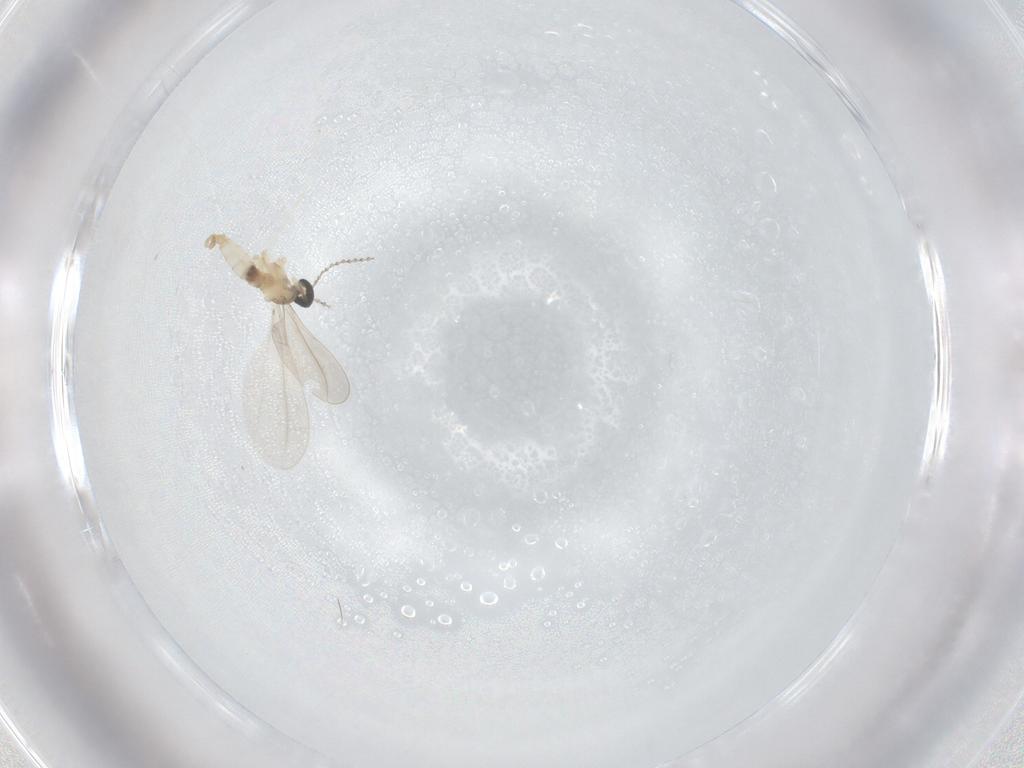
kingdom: Animalia
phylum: Arthropoda
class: Insecta
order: Diptera
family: Cecidomyiidae
